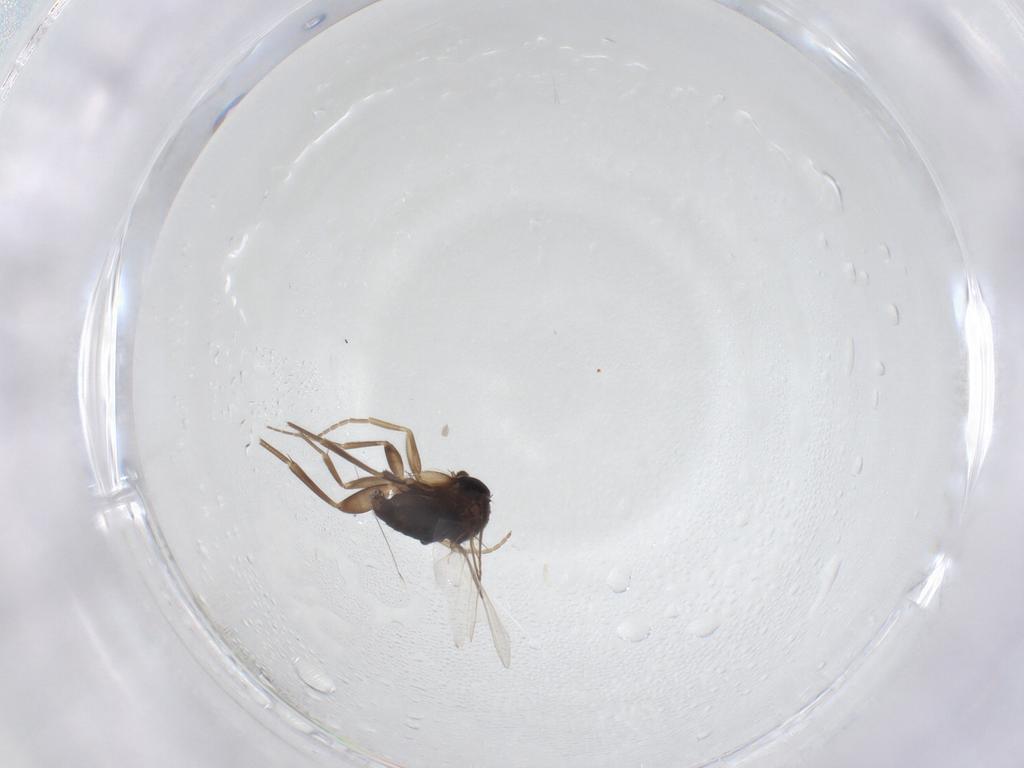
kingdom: Animalia
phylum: Arthropoda
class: Insecta
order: Diptera
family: Phoridae
